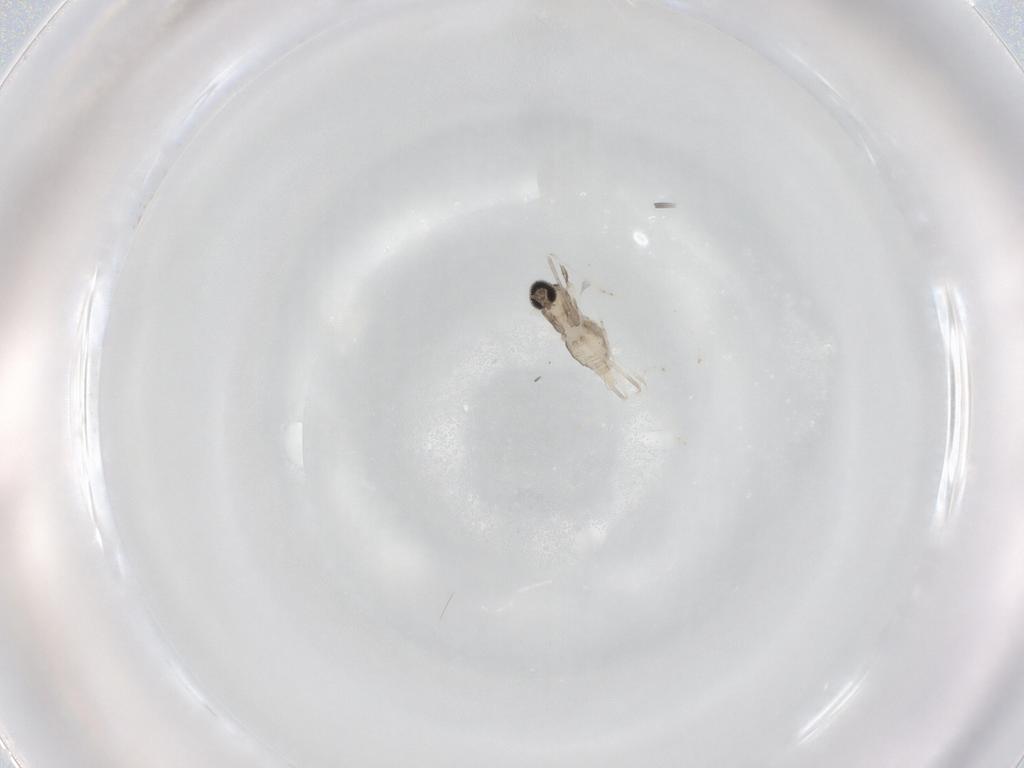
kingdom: Animalia
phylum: Arthropoda
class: Insecta
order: Diptera
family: Cecidomyiidae
